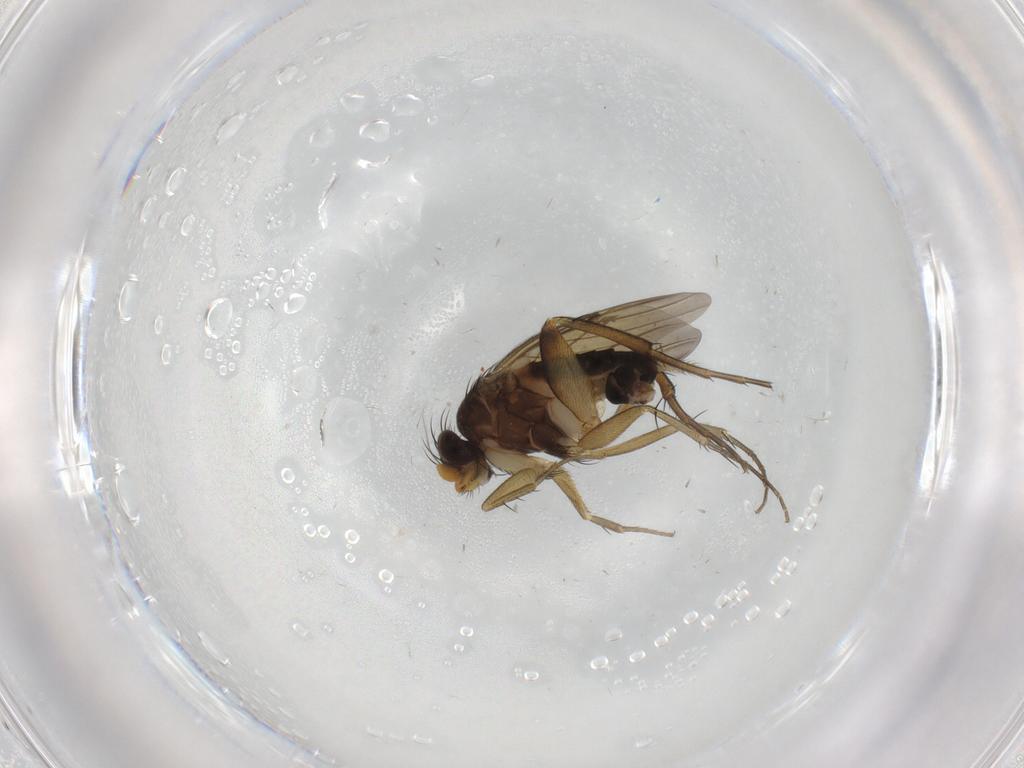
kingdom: Animalia
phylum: Arthropoda
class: Insecta
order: Diptera
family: Phoridae
